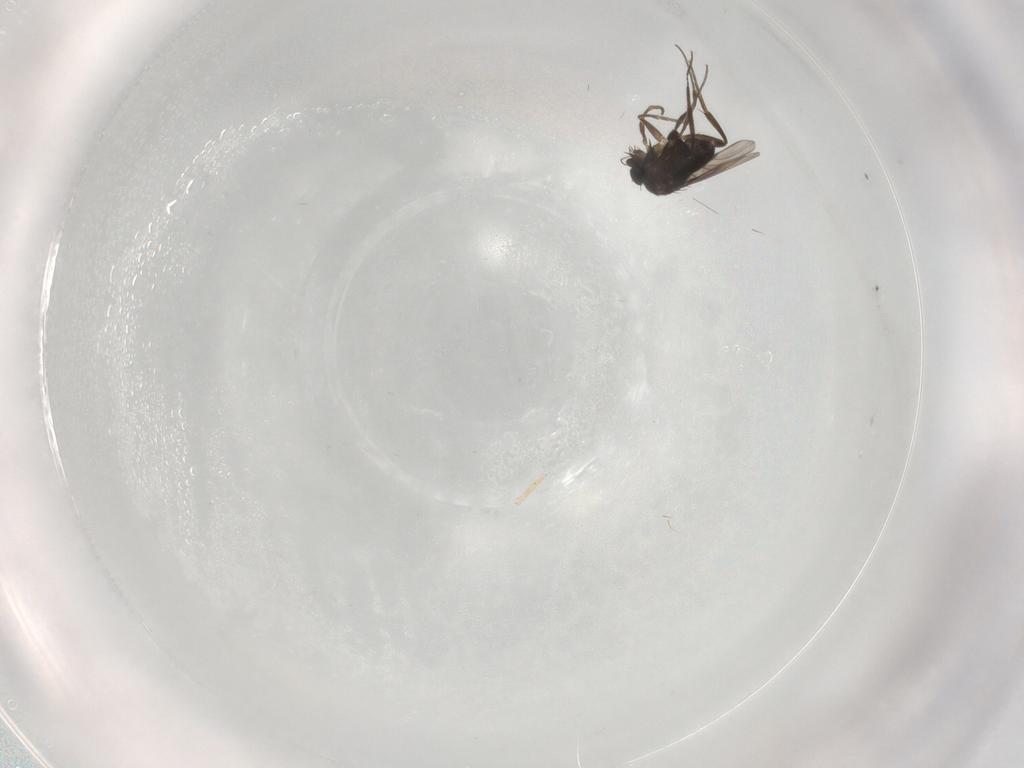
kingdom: Animalia
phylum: Arthropoda
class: Insecta
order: Diptera
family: Phoridae
